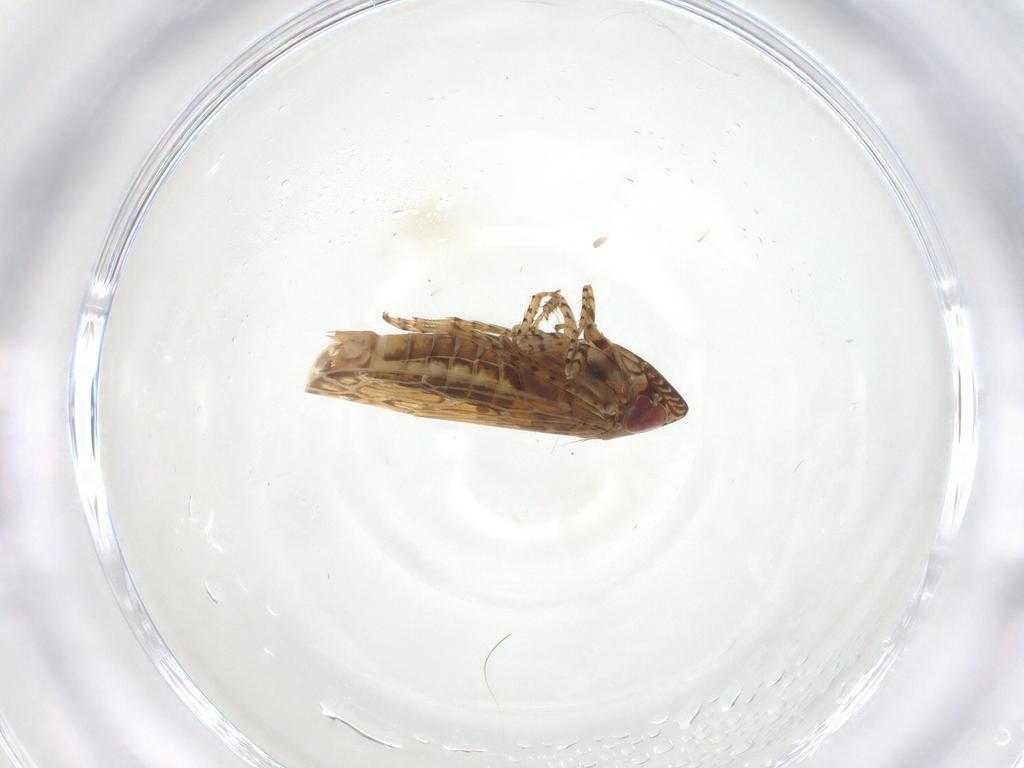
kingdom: Animalia
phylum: Arthropoda
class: Insecta
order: Hemiptera
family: Cicadellidae
